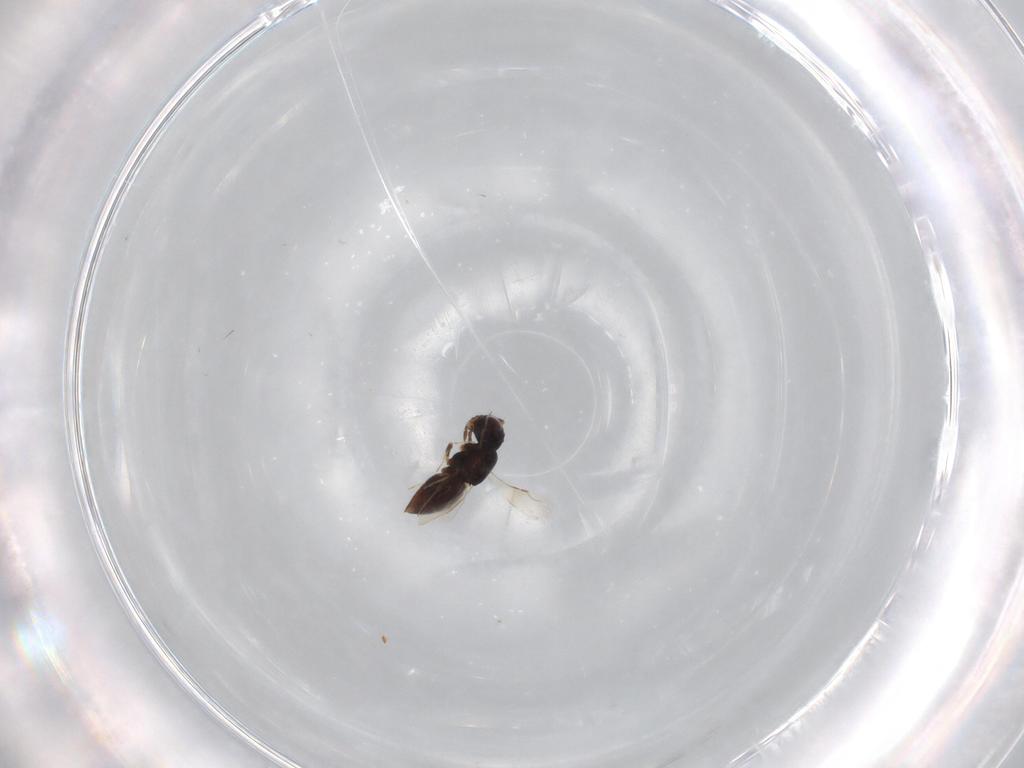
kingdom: Animalia
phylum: Arthropoda
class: Insecta
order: Hymenoptera
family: Ceraphronidae
